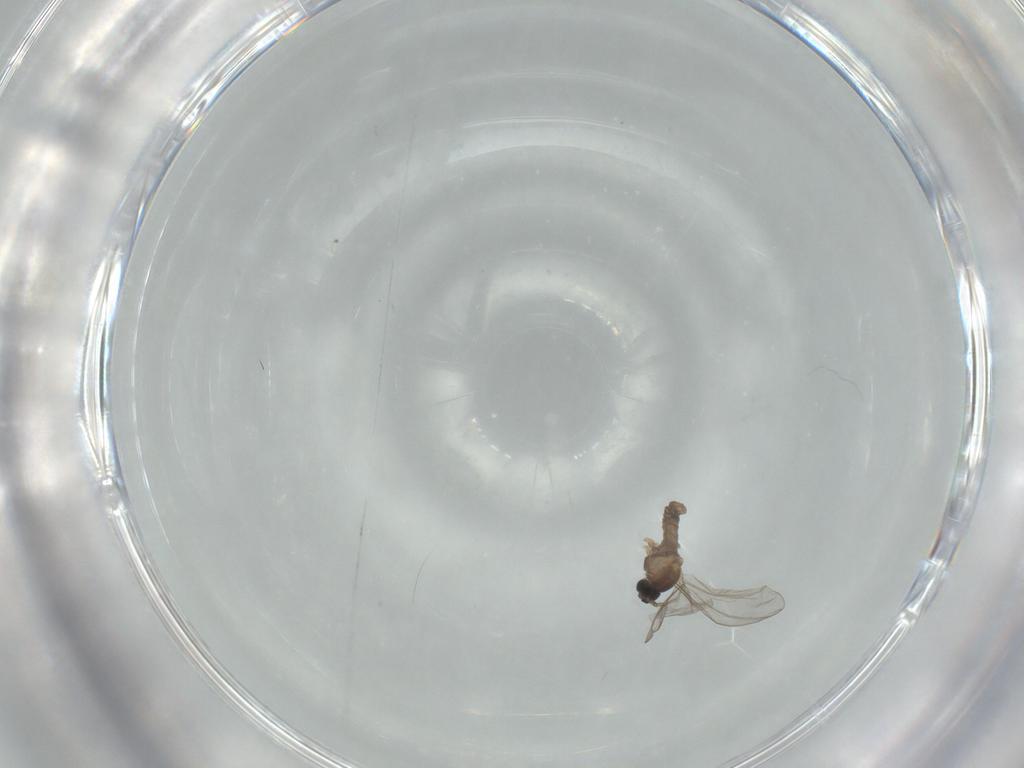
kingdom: Animalia
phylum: Arthropoda
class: Insecta
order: Diptera
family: Cecidomyiidae
